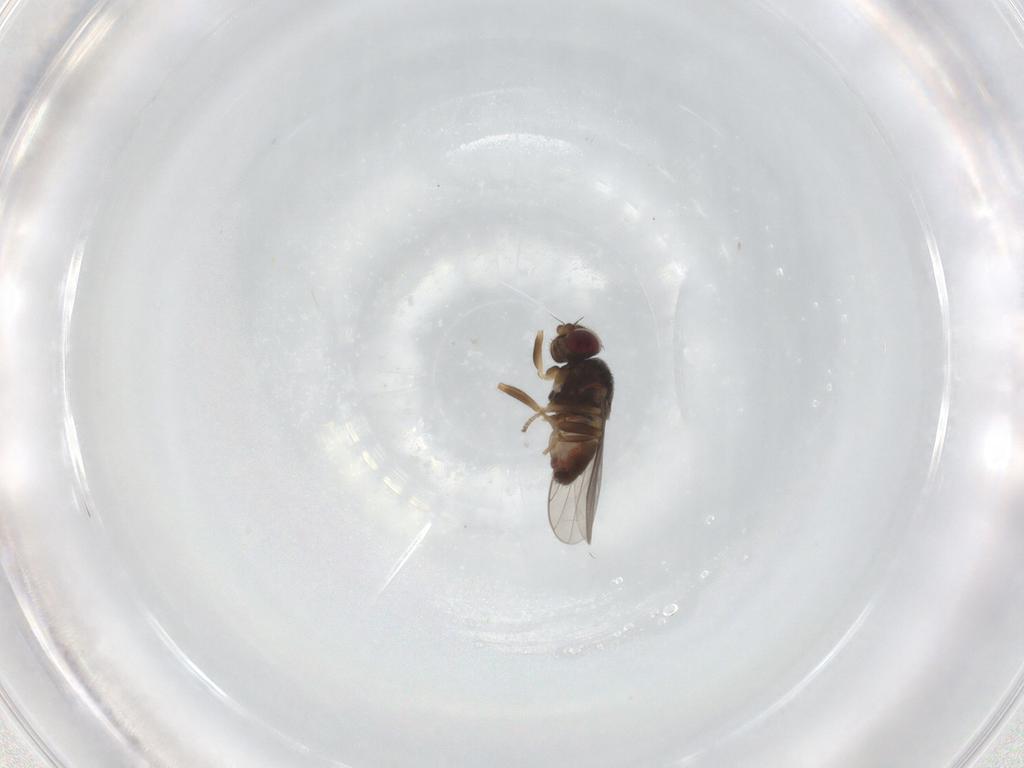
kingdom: Animalia
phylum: Arthropoda
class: Insecta
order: Diptera
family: Chloropidae
